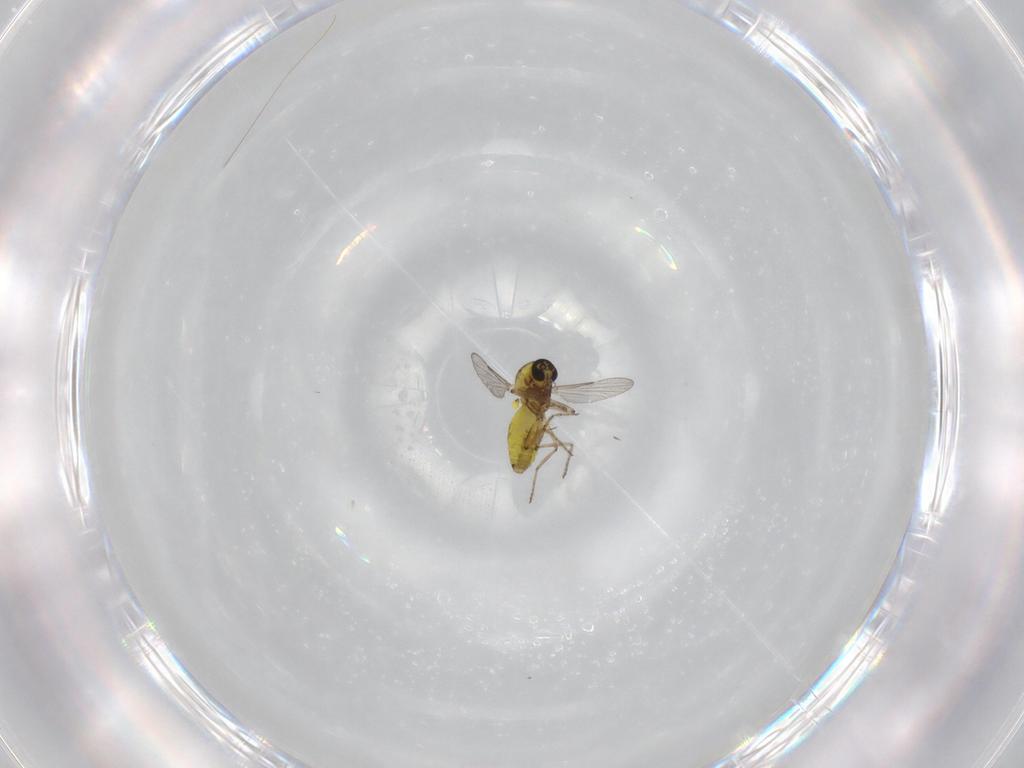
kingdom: Animalia
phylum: Arthropoda
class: Insecta
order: Diptera
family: Ceratopogonidae
